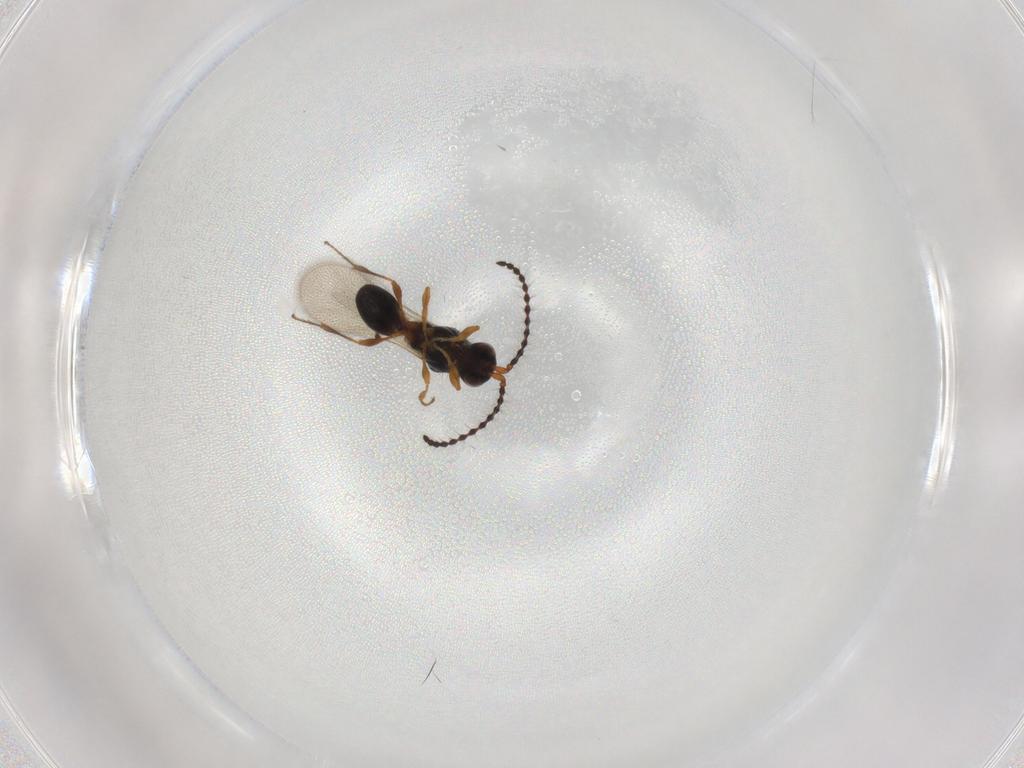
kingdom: Animalia
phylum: Arthropoda
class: Insecta
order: Hymenoptera
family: Diapriidae
